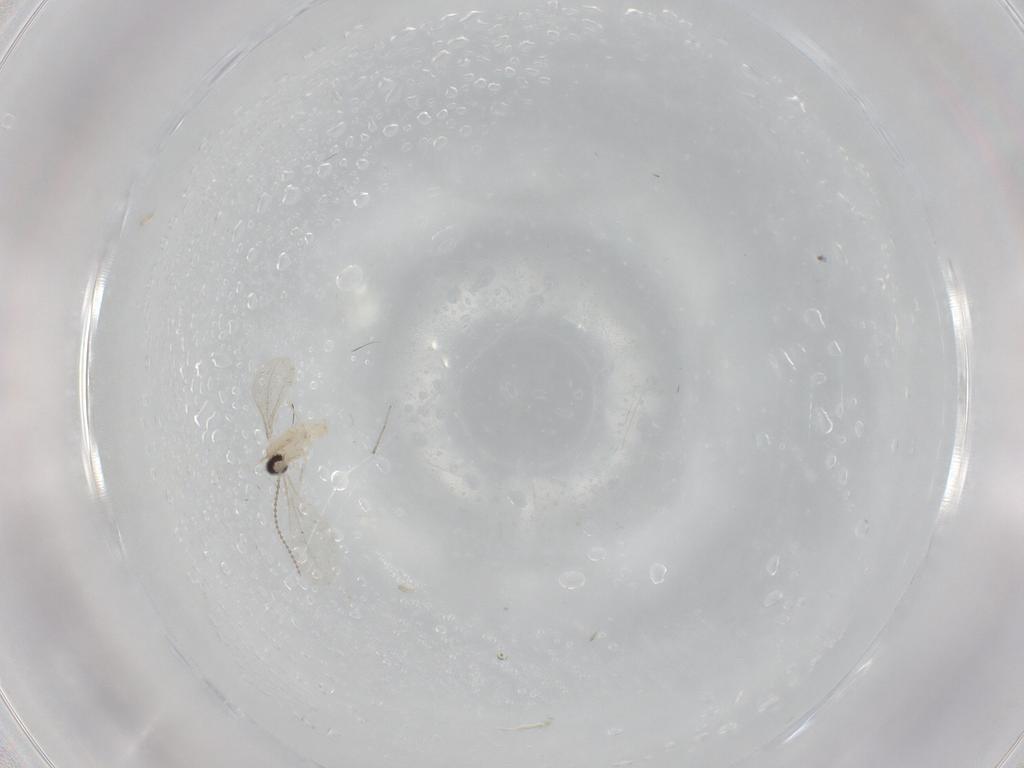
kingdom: Animalia
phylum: Arthropoda
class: Insecta
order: Diptera
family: Cecidomyiidae
